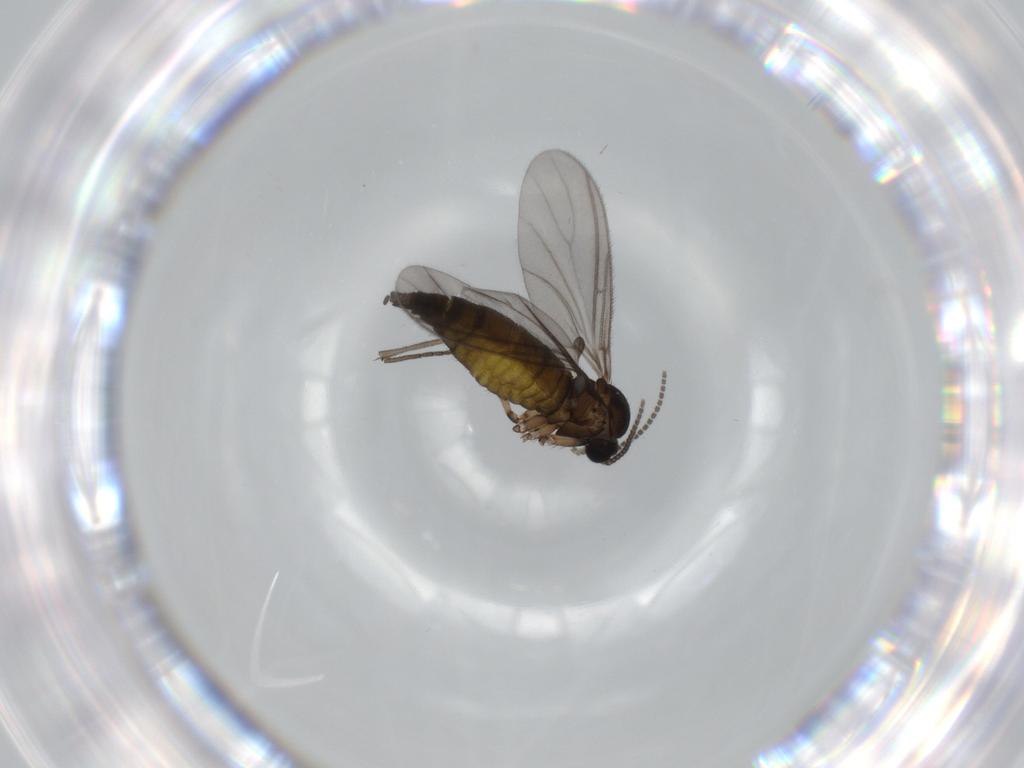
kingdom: Animalia
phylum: Arthropoda
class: Insecta
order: Diptera
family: Sciaridae
